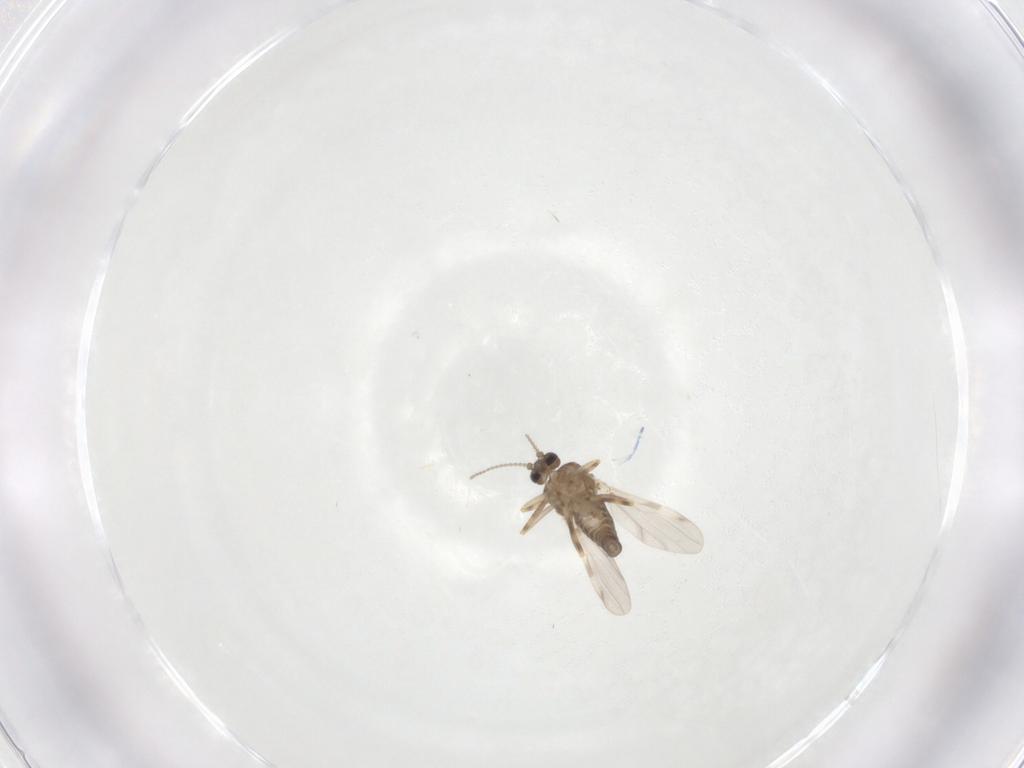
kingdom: Animalia
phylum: Arthropoda
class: Insecta
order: Diptera
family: Phoridae
